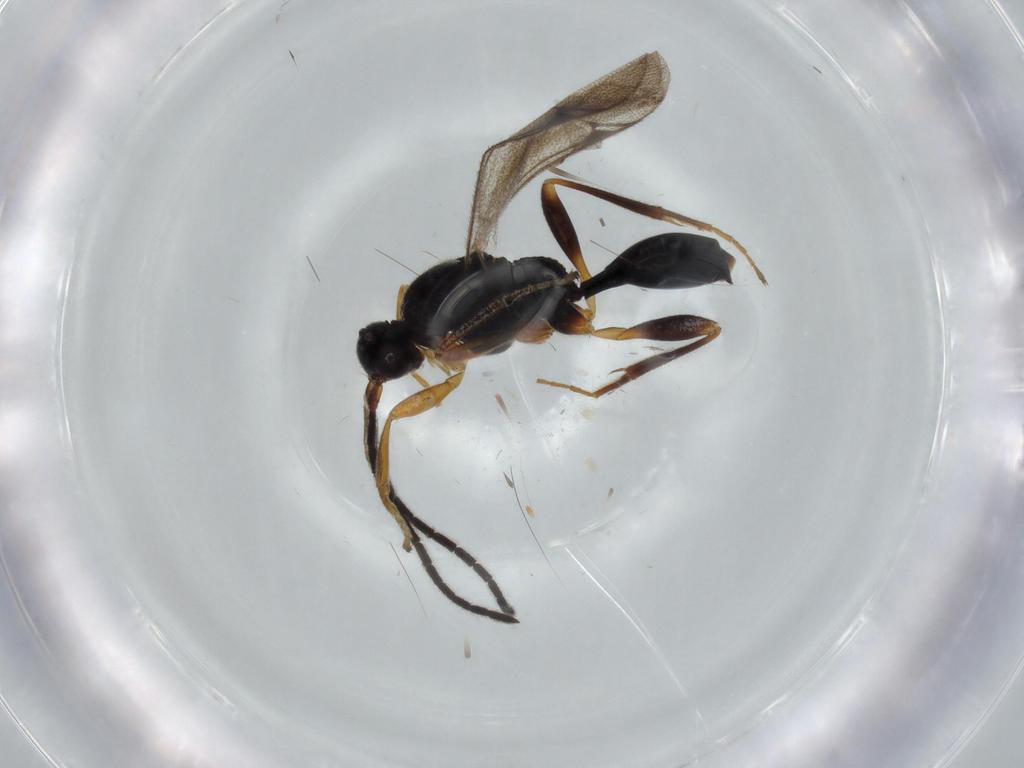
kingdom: Animalia
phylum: Arthropoda
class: Insecta
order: Hymenoptera
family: Proctotrupidae
